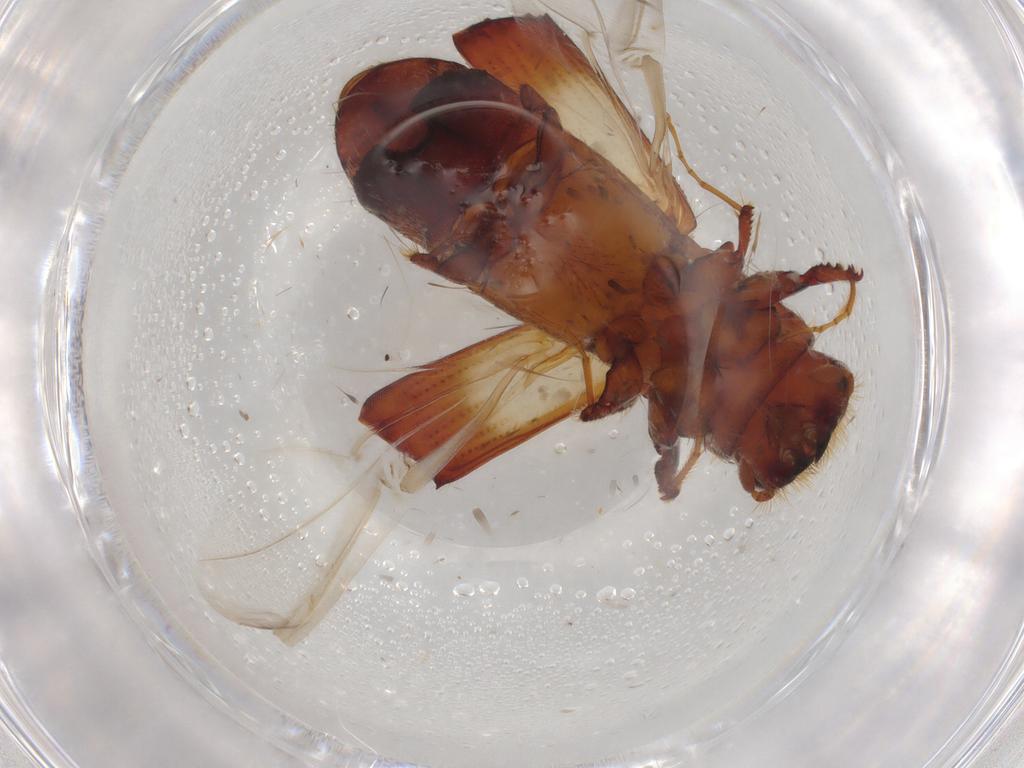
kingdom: Animalia
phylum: Arthropoda
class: Insecta
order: Coleoptera
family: Curculionidae
